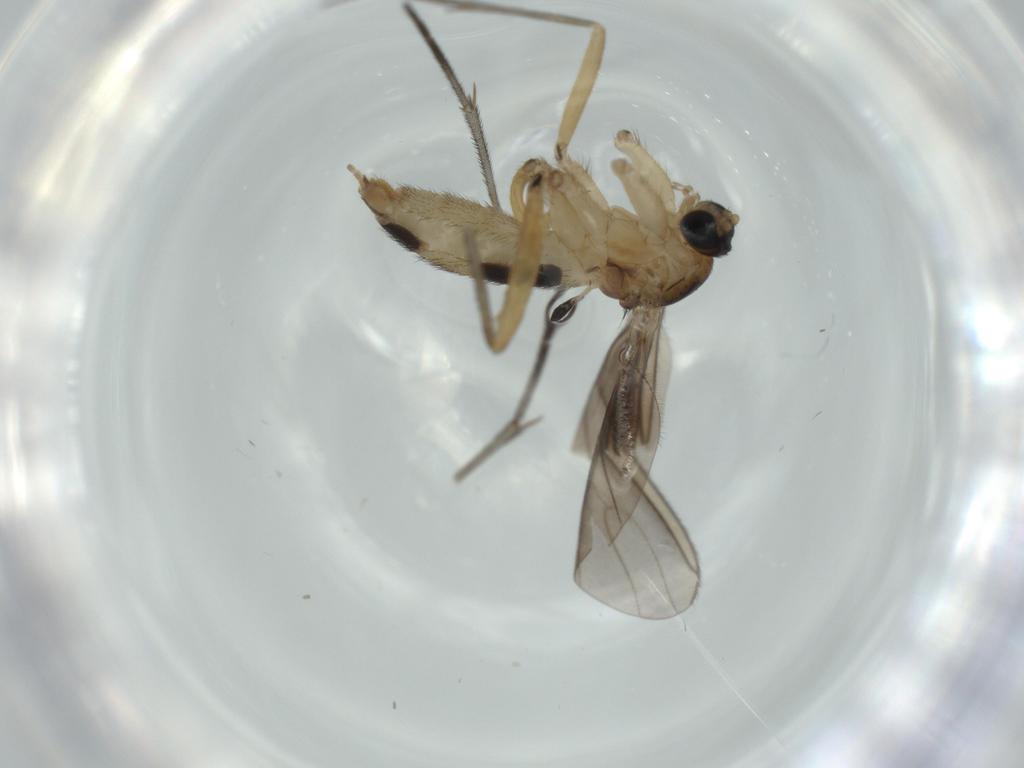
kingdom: Animalia
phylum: Arthropoda
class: Insecta
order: Diptera
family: Sciaridae
